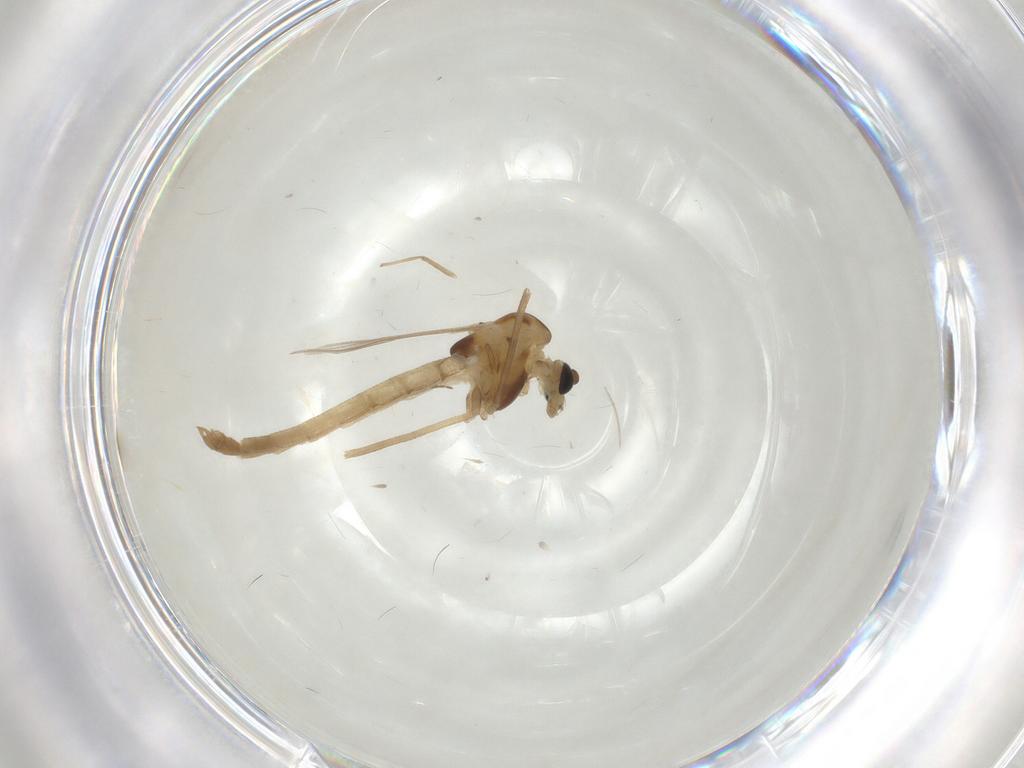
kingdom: Animalia
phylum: Arthropoda
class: Insecta
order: Diptera
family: Chironomidae
